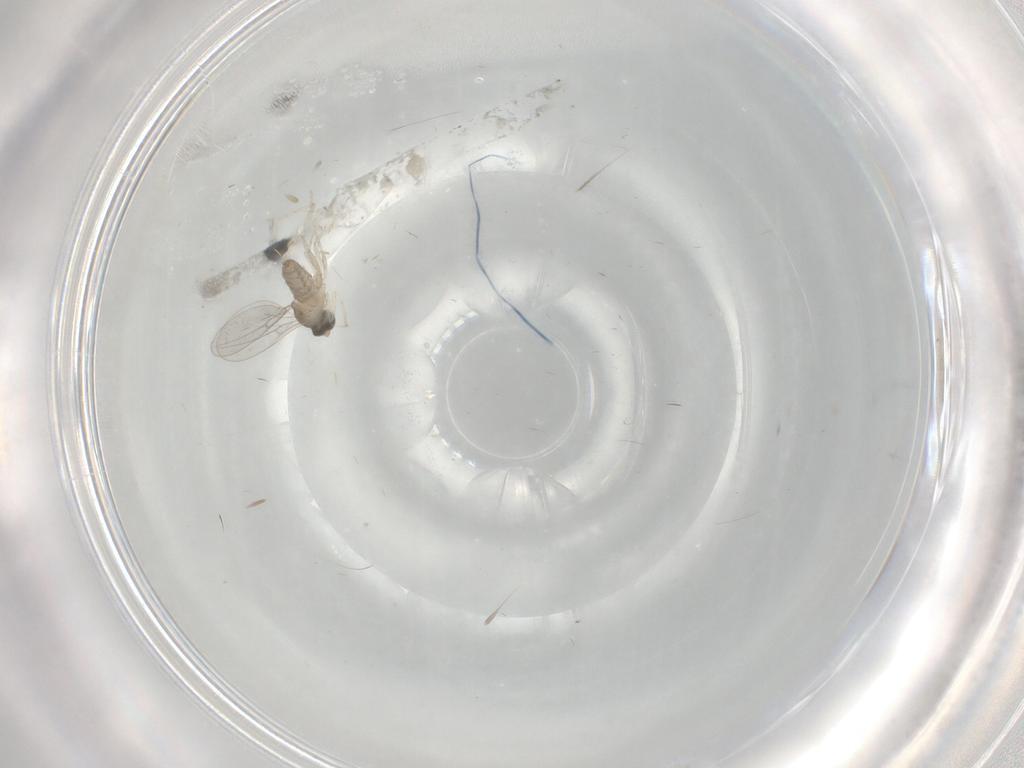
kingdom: Animalia
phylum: Arthropoda
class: Insecta
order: Diptera
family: Cecidomyiidae
